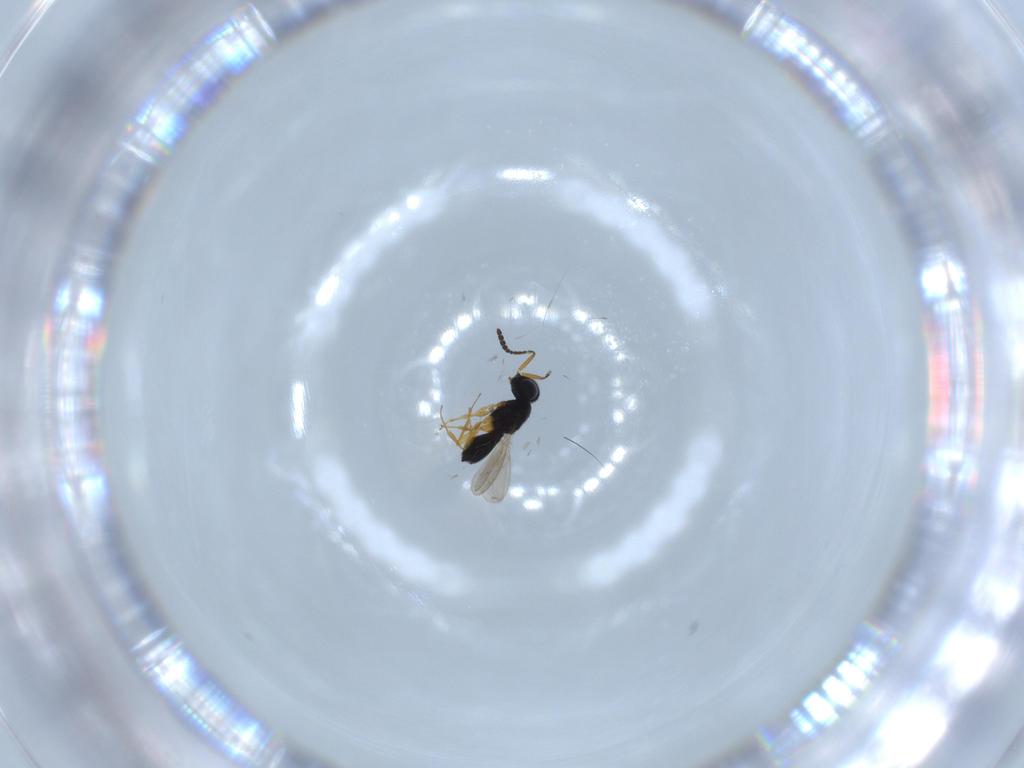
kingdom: Animalia
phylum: Arthropoda
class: Insecta
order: Hymenoptera
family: Scelionidae
